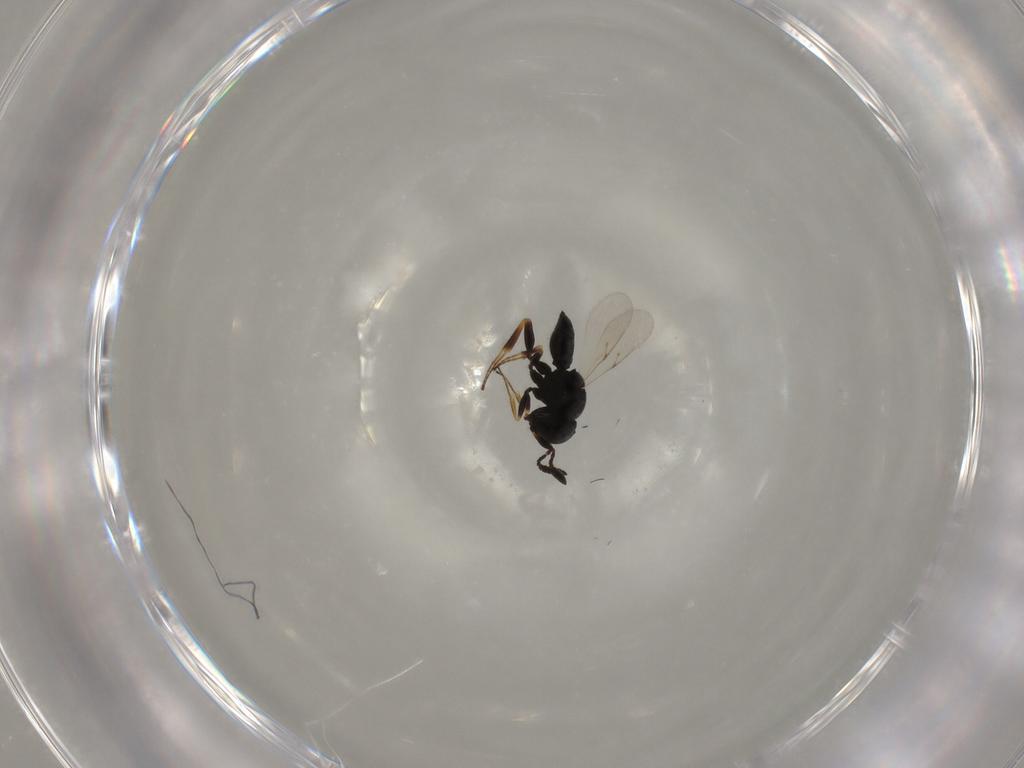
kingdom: Animalia
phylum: Arthropoda
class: Insecta
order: Hymenoptera
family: Scelionidae
